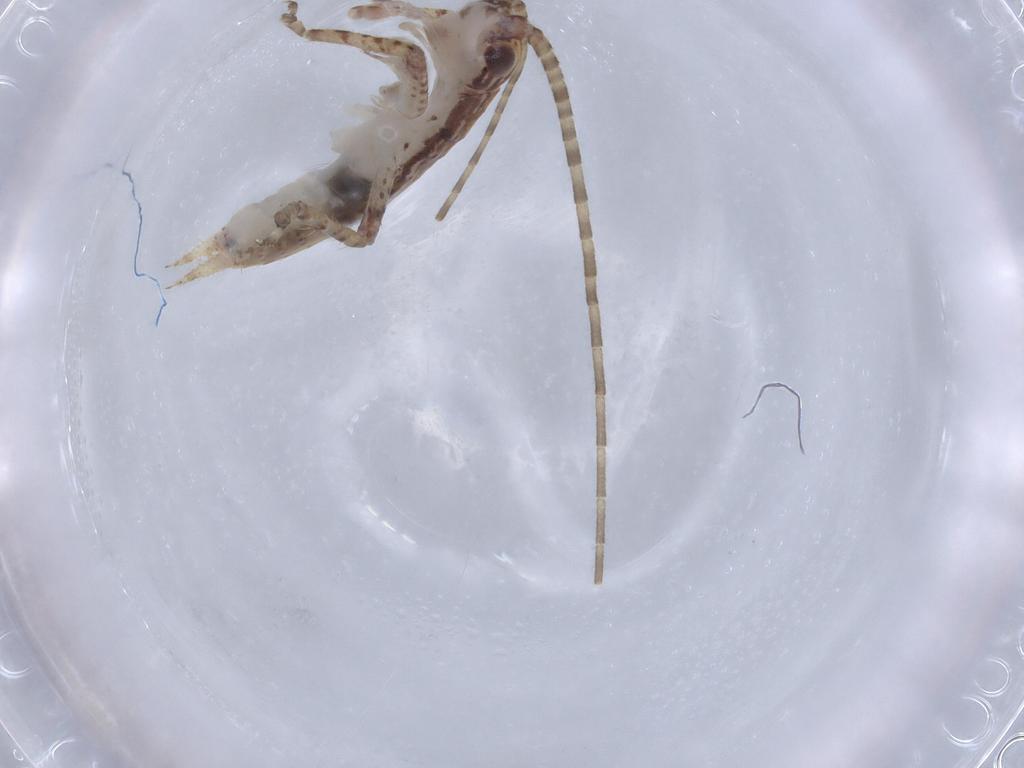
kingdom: Animalia
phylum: Arthropoda
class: Insecta
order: Orthoptera
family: Gryllidae
